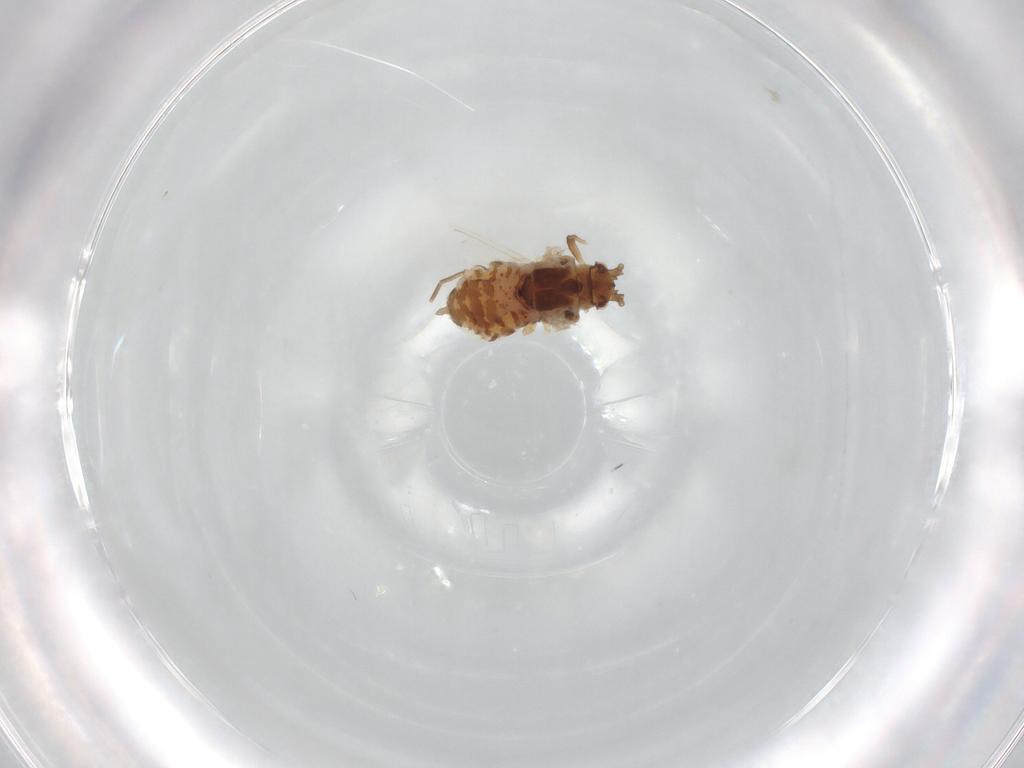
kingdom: Animalia
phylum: Arthropoda
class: Insecta
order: Hemiptera
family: Aphididae
